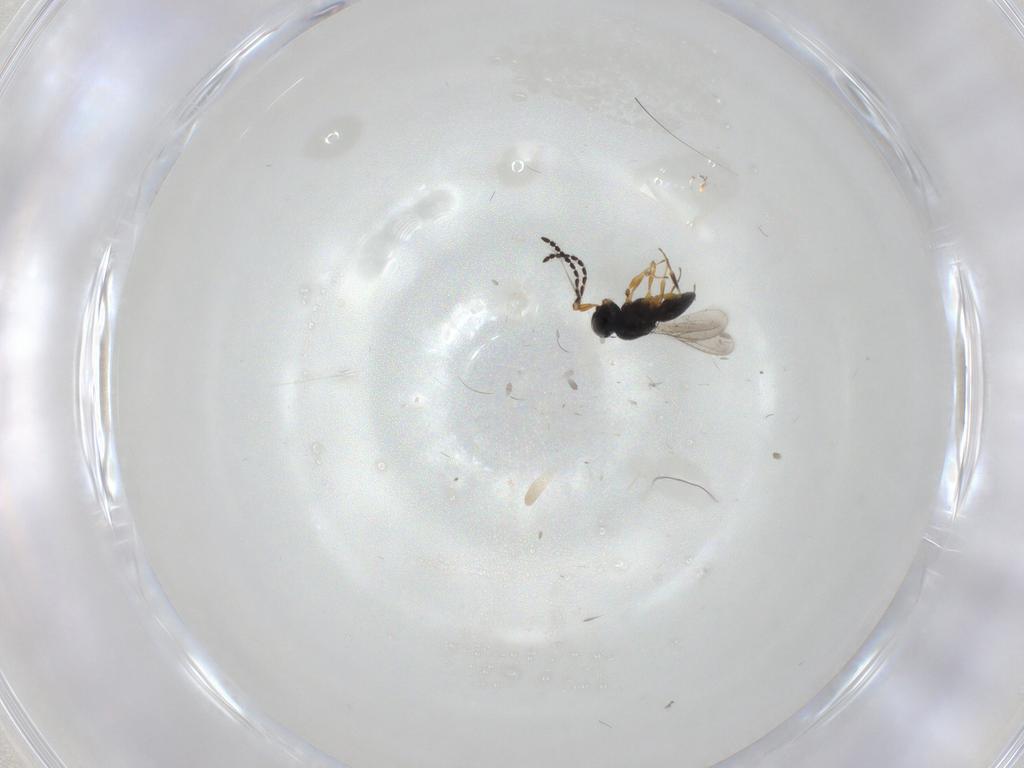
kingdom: Animalia
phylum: Arthropoda
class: Insecta
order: Hymenoptera
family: Scelionidae
